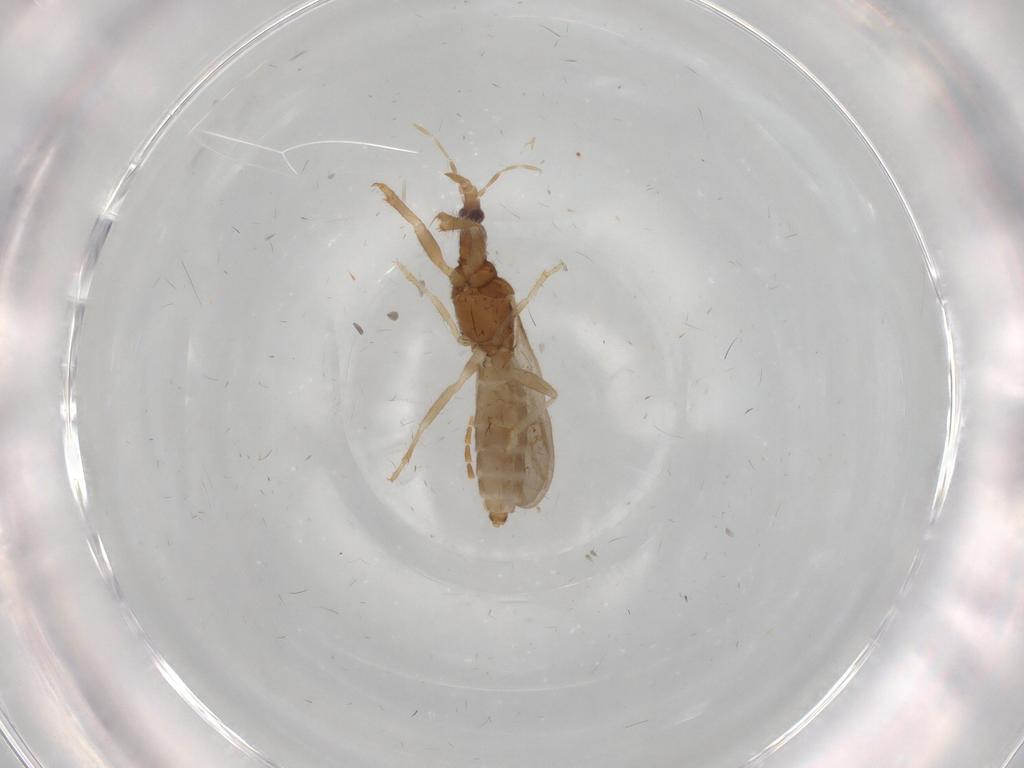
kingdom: Animalia
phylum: Arthropoda
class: Insecta
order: Hemiptera
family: Enicocephalidae
